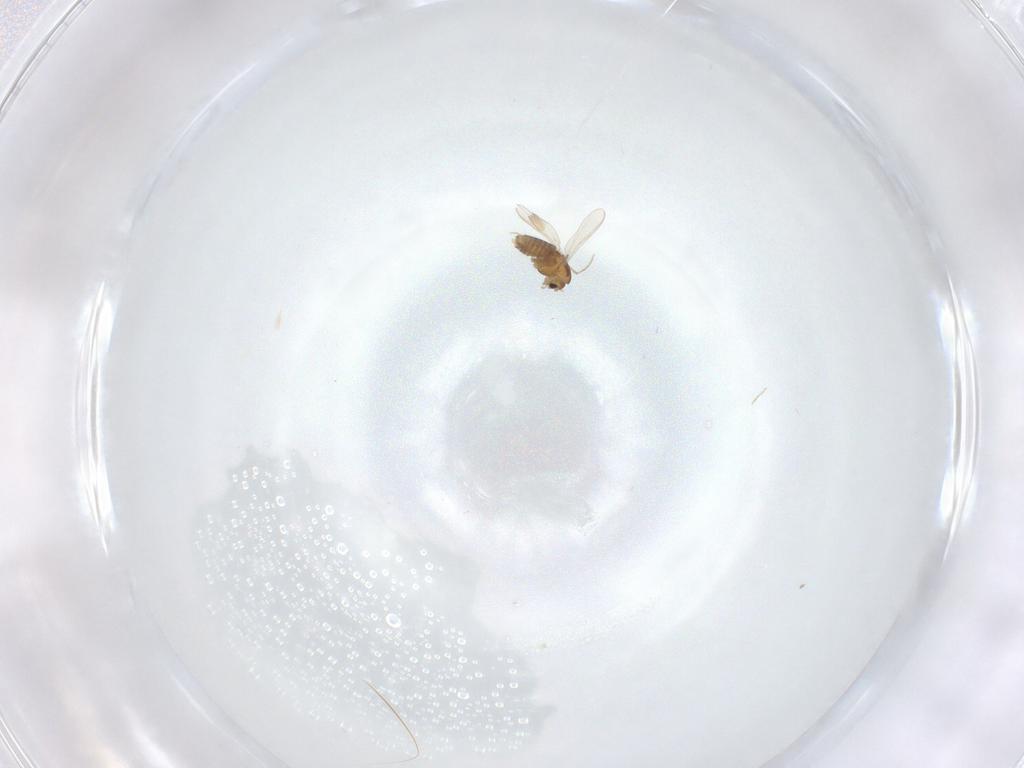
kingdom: Animalia
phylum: Arthropoda
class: Insecta
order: Diptera
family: Chironomidae
